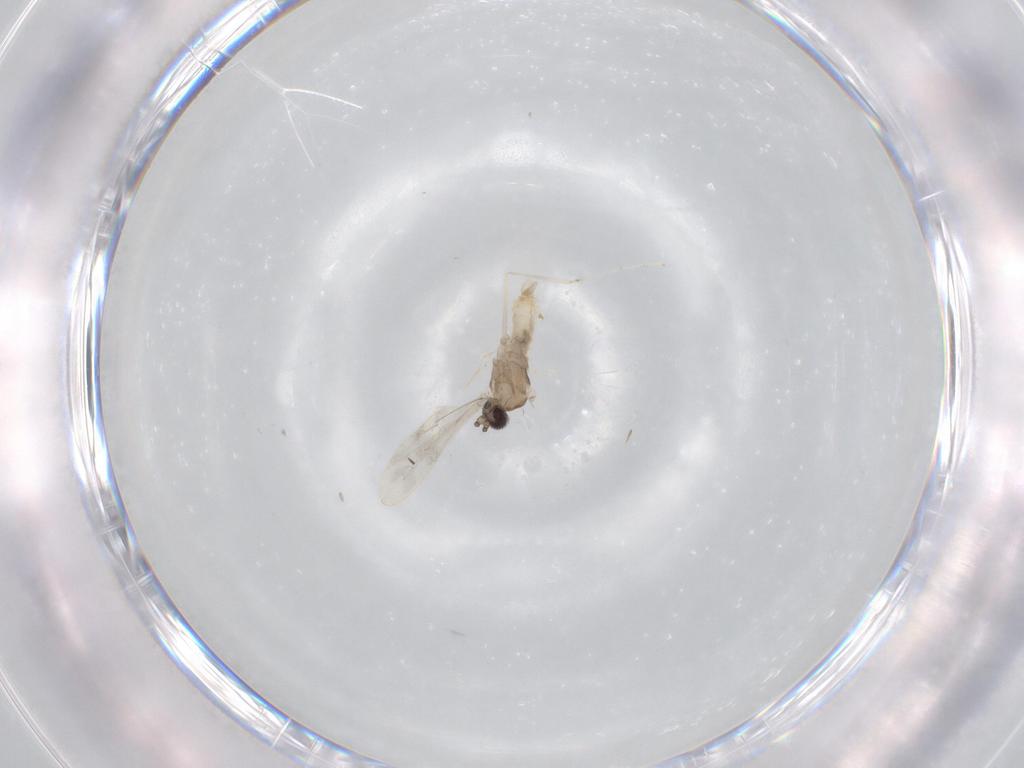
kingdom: Animalia
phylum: Arthropoda
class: Insecta
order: Diptera
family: Cecidomyiidae
